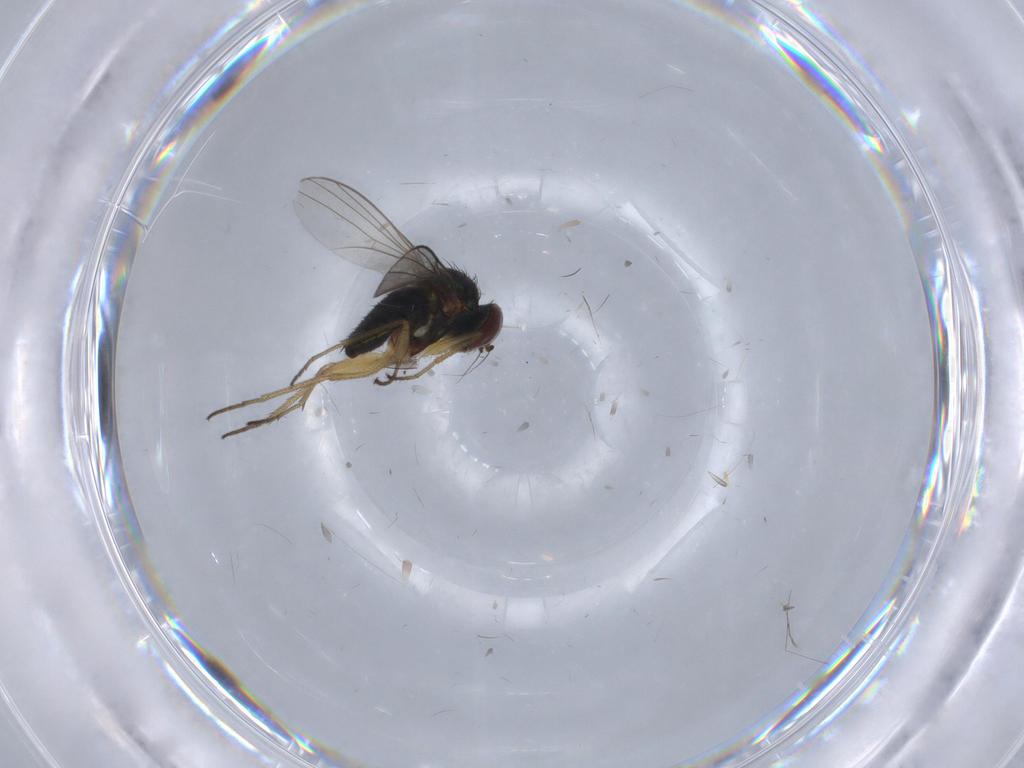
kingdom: Animalia
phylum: Arthropoda
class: Insecta
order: Diptera
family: Dolichopodidae
